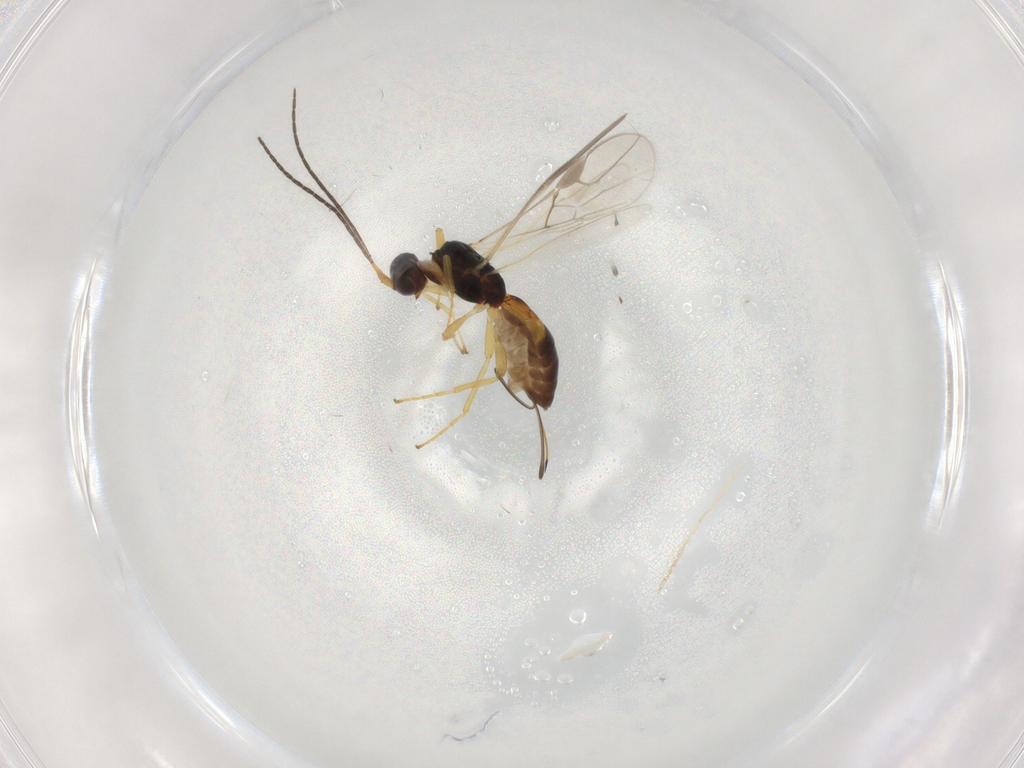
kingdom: Animalia
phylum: Arthropoda
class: Insecta
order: Hymenoptera
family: Braconidae
